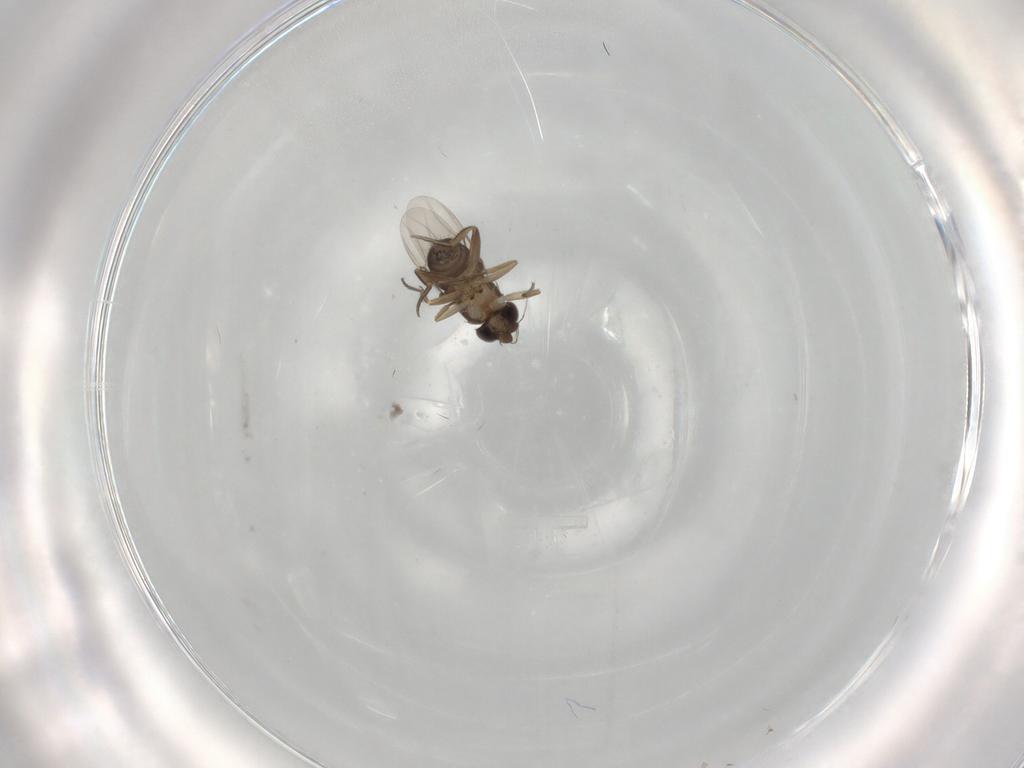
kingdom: Animalia
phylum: Arthropoda
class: Insecta
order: Diptera
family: Phoridae
